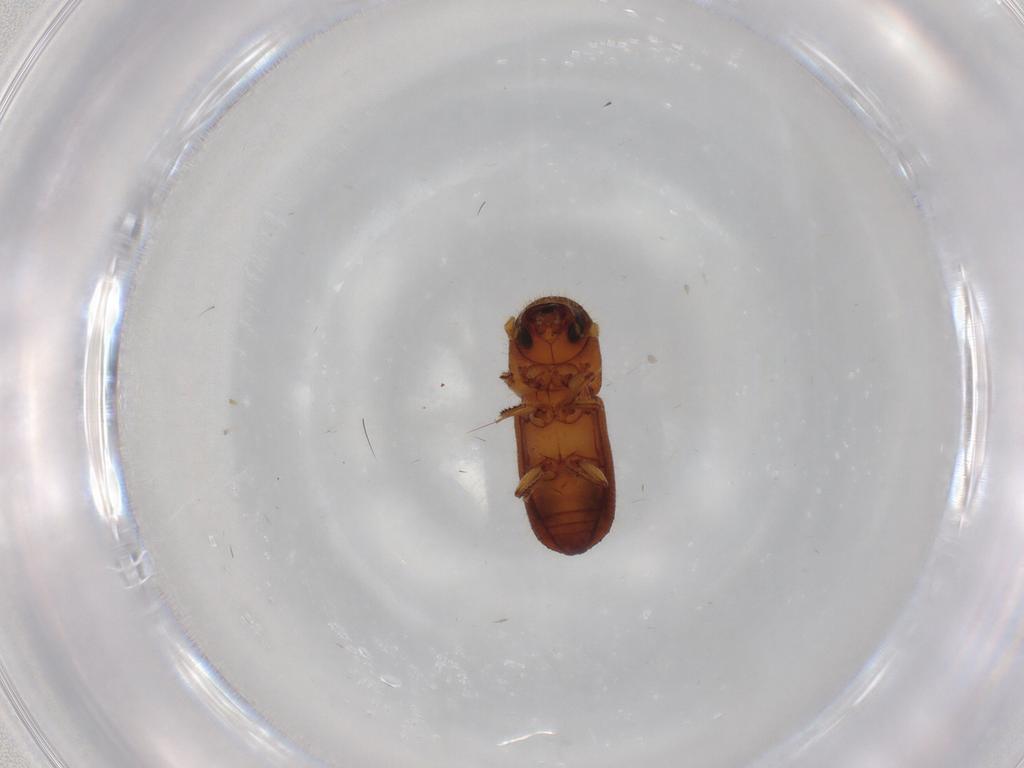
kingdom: Animalia
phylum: Arthropoda
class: Insecta
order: Coleoptera
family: Curculionidae
